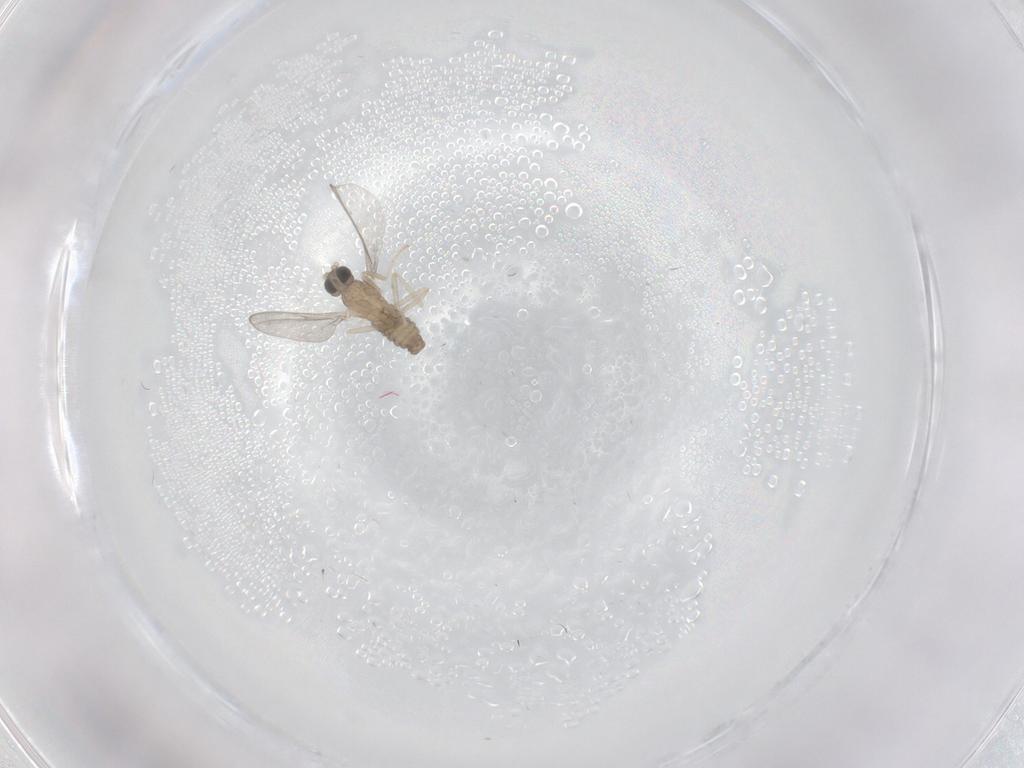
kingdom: Animalia
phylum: Arthropoda
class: Insecta
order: Diptera
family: Cecidomyiidae
